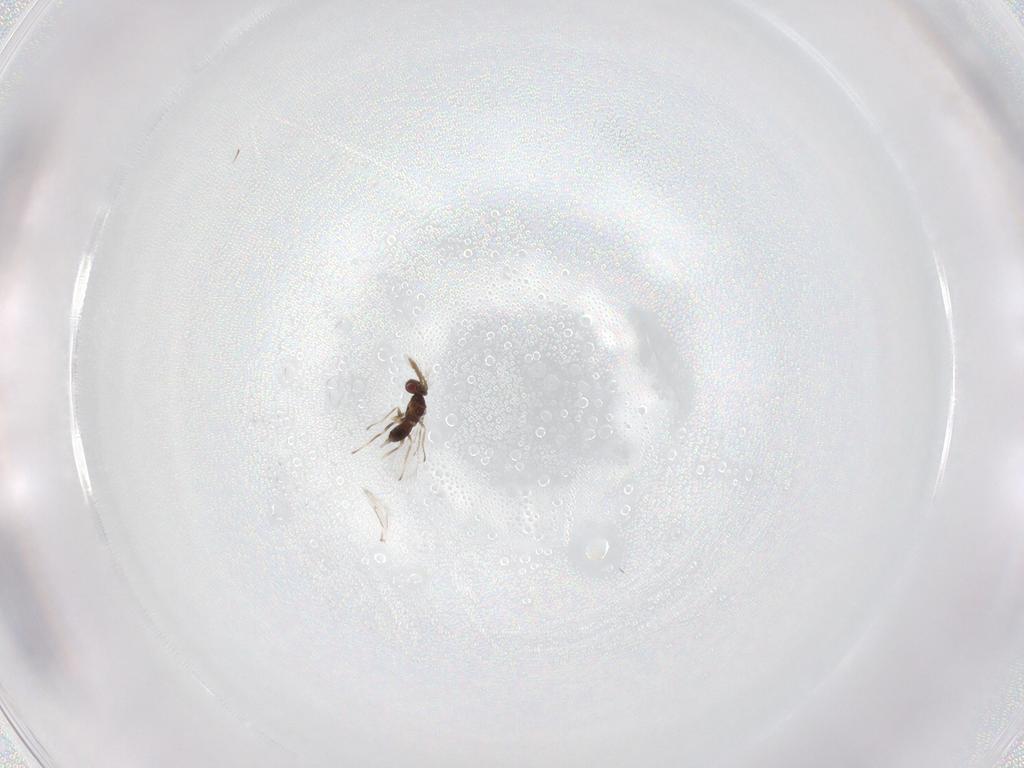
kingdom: Animalia
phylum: Arthropoda
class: Insecta
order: Hymenoptera
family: Eulophidae
